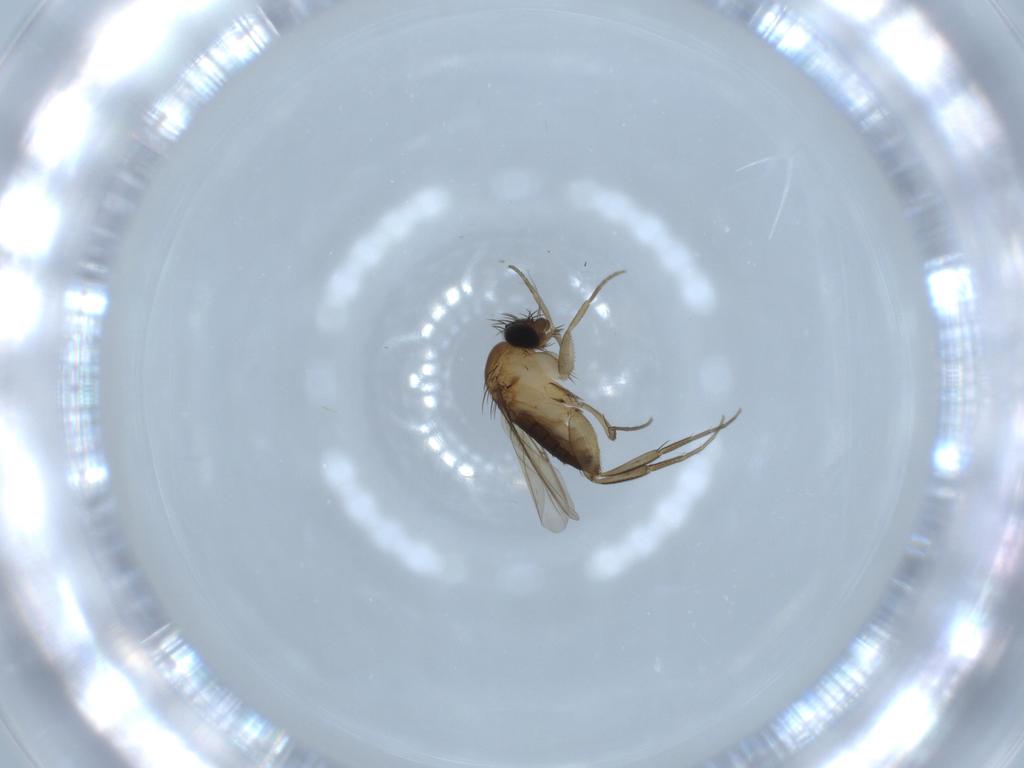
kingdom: Animalia
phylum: Arthropoda
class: Insecta
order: Diptera
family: Phoridae
